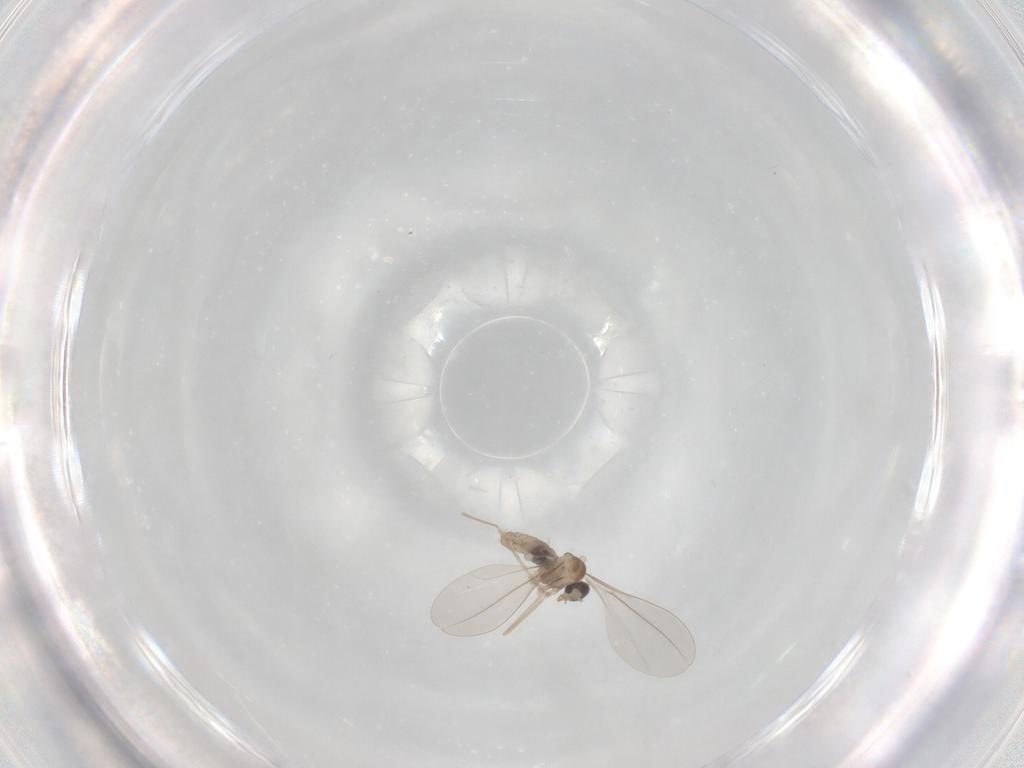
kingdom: Animalia
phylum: Arthropoda
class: Insecta
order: Diptera
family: Cecidomyiidae
